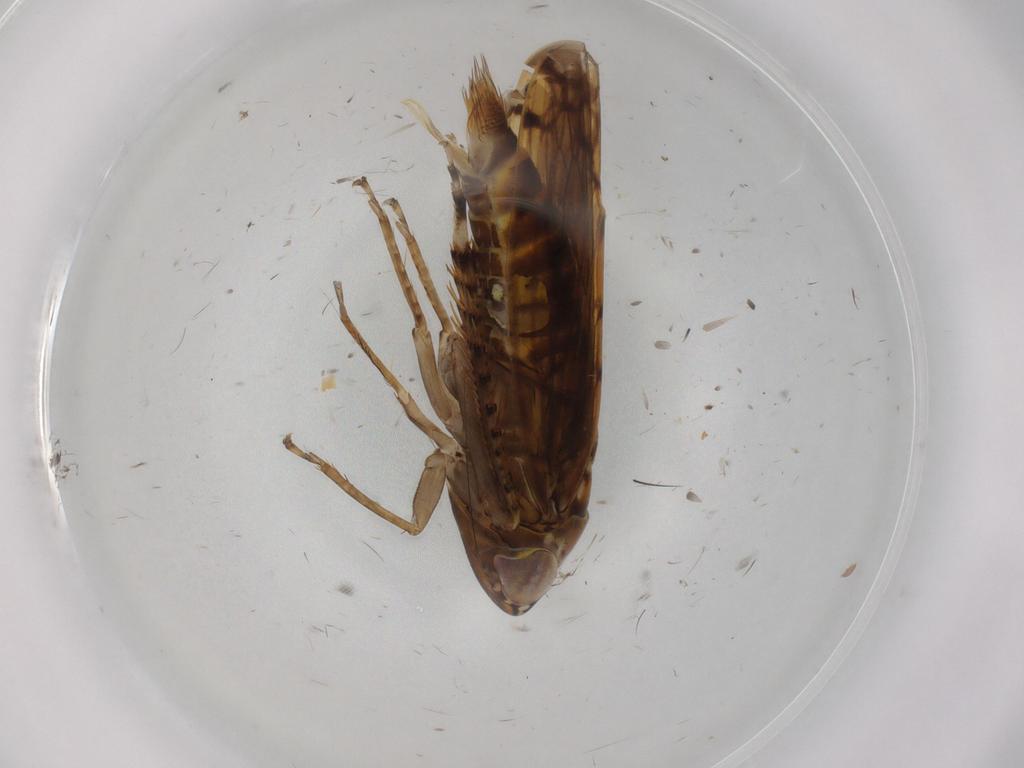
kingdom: Animalia
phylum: Arthropoda
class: Insecta
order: Hemiptera
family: Cicadellidae
